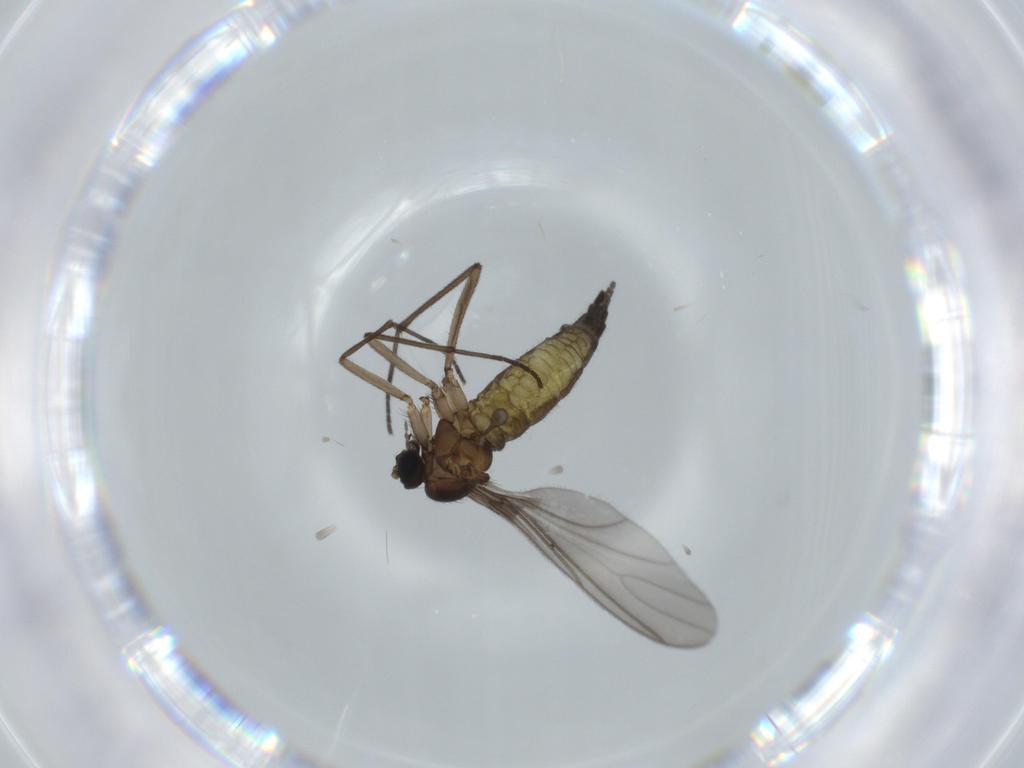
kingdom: Animalia
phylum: Arthropoda
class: Insecta
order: Diptera
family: Sciaridae
